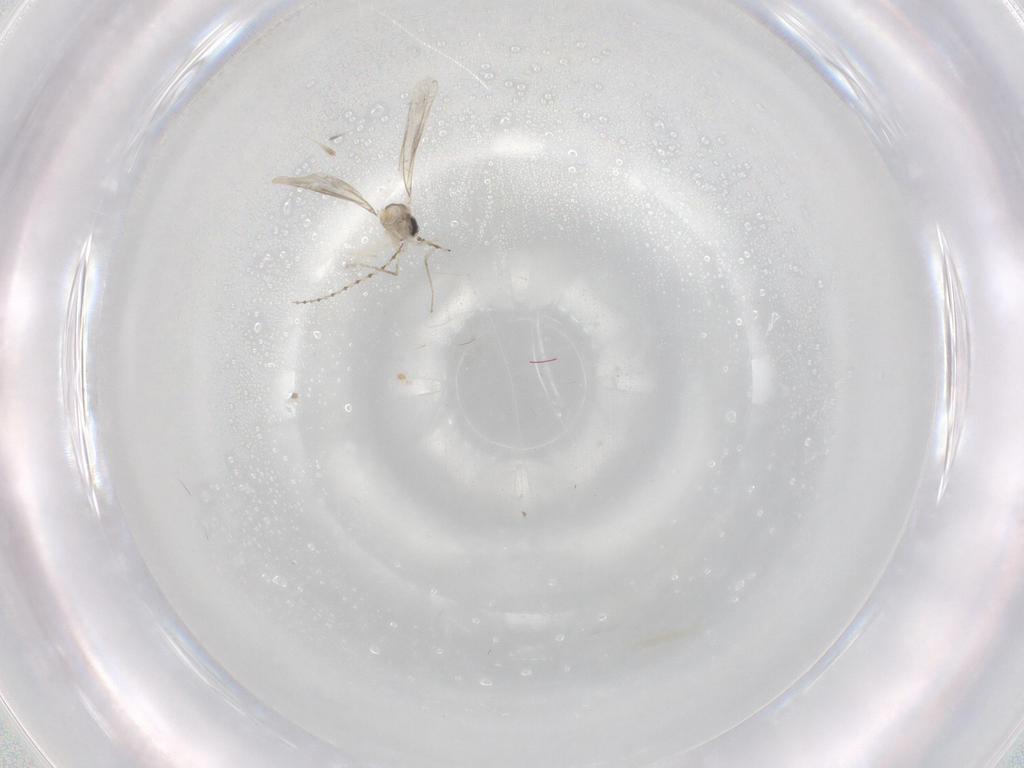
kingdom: Animalia
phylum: Arthropoda
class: Insecta
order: Diptera
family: Cecidomyiidae
